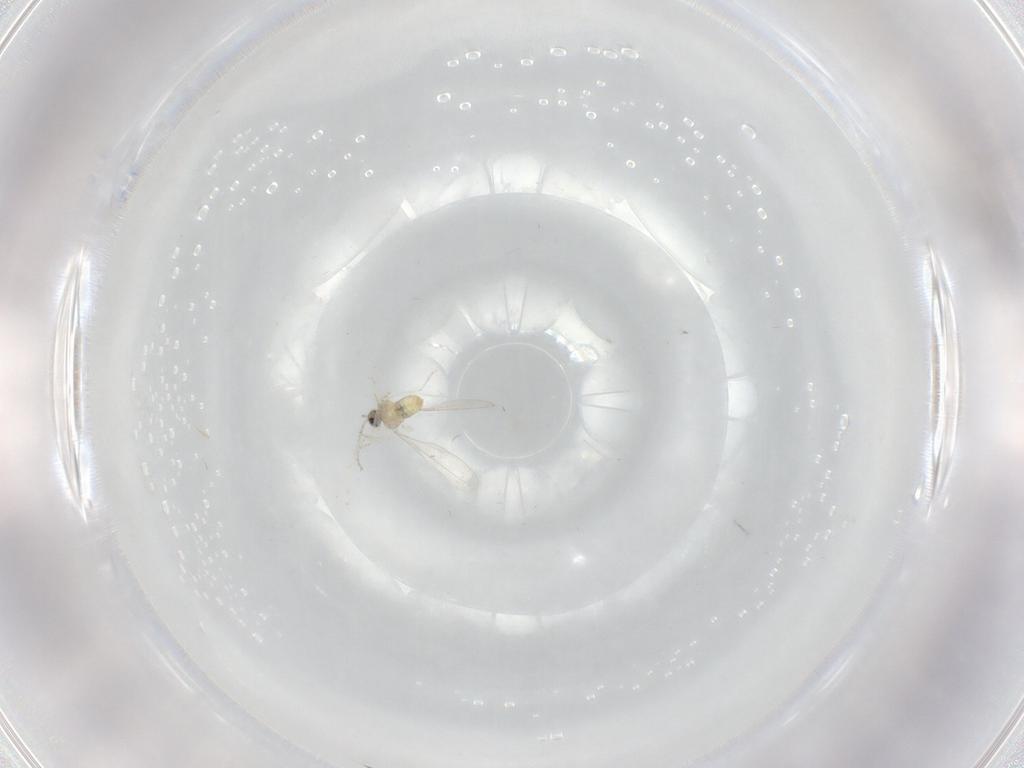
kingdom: Animalia
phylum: Arthropoda
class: Insecta
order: Diptera
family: Cecidomyiidae
